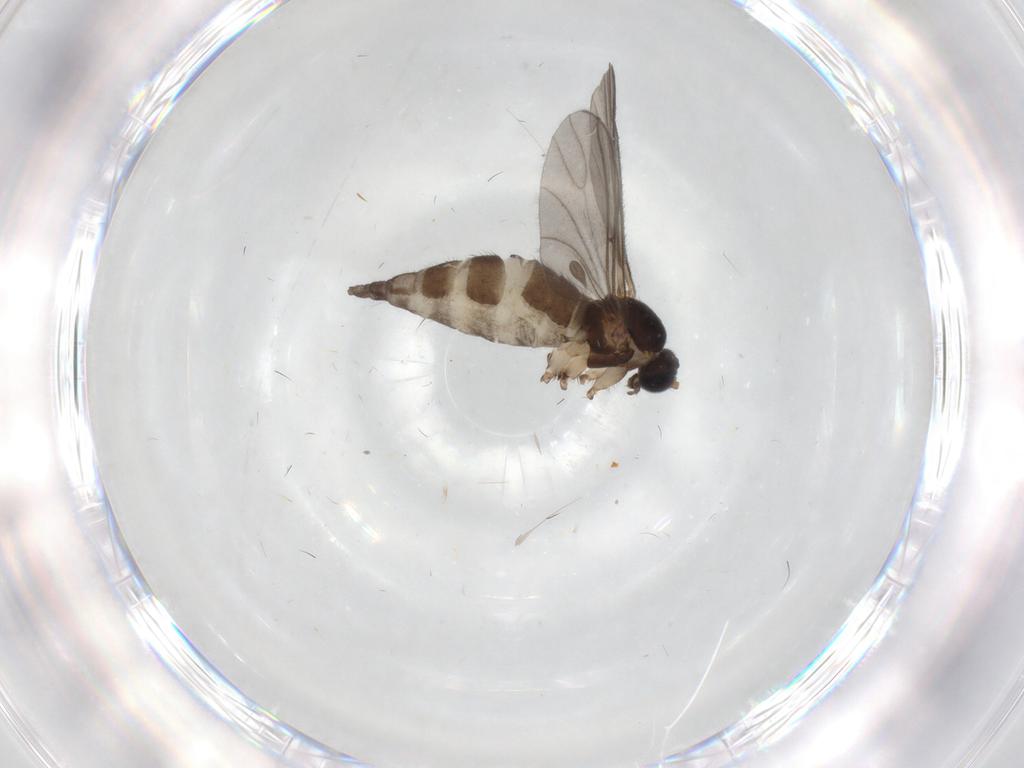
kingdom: Animalia
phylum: Arthropoda
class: Insecta
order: Diptera
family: Sciaridae
